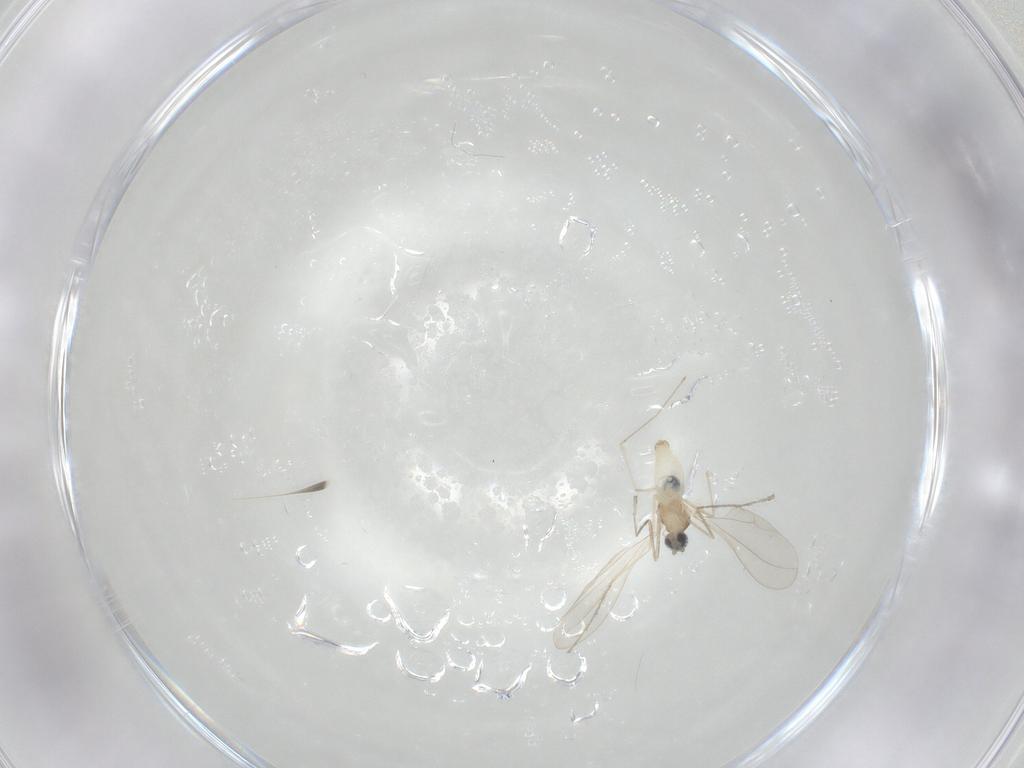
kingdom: Animalia
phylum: Arthropoda
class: Insecta
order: Diptera
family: Cecidomyiidae
